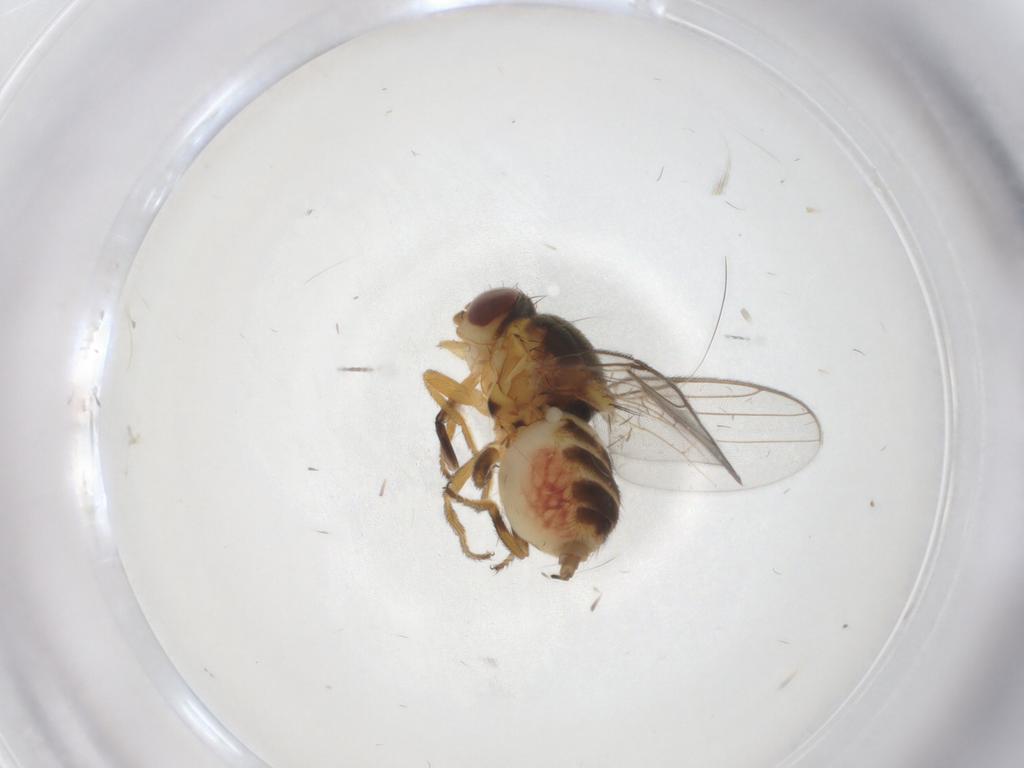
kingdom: Animalia
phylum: Arthropoda
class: Insecta
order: Diptera
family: Chloropidae
